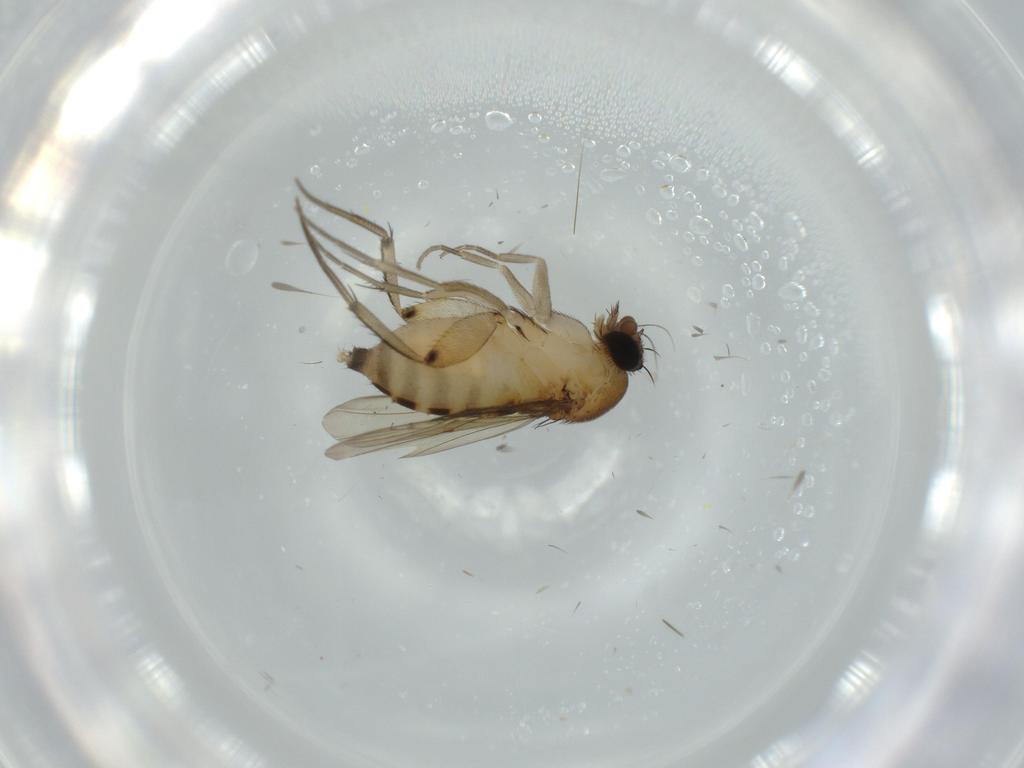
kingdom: Animalia
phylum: Arthropoda
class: Insecta
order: Diptera
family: Phoridae
